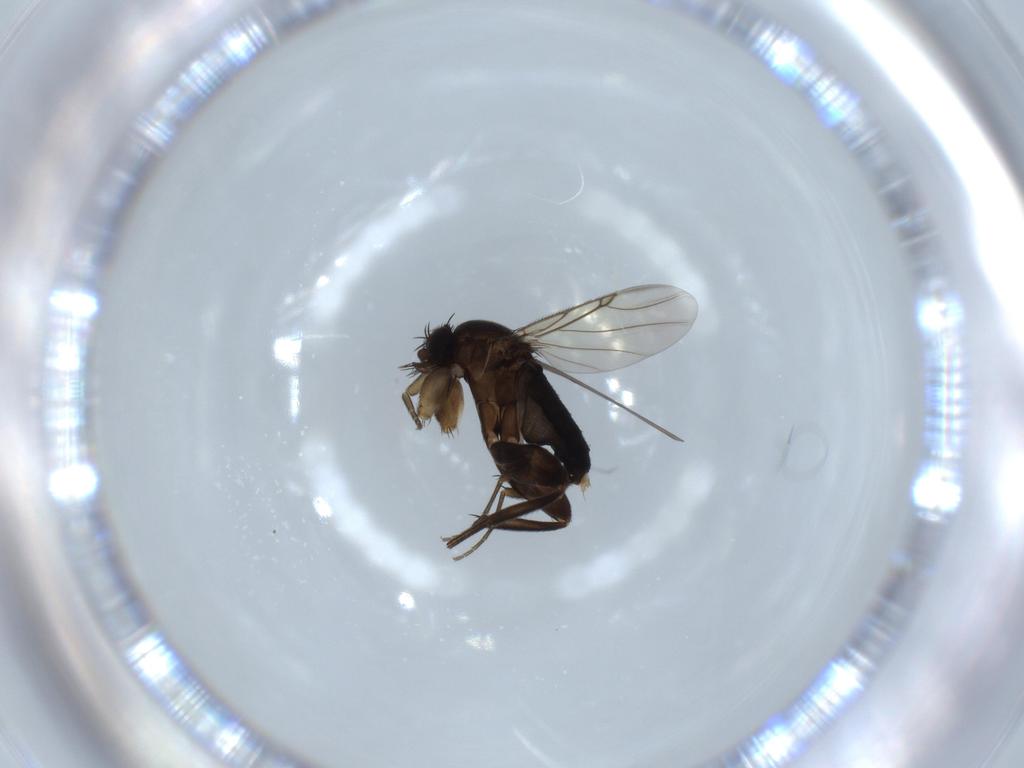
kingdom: Animalia
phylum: Arthropoda
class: Insecta
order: Diptera
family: Phoridae
